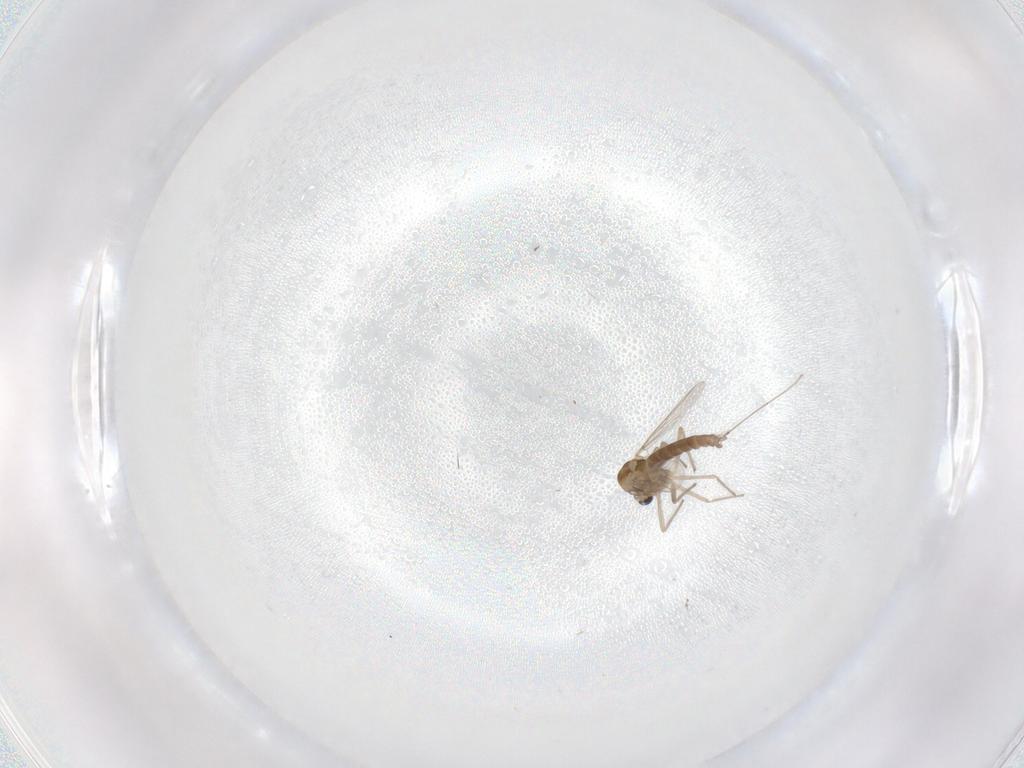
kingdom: Animalia
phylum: Arthropoda
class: Insecta
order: Diptera
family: Chironomidae
